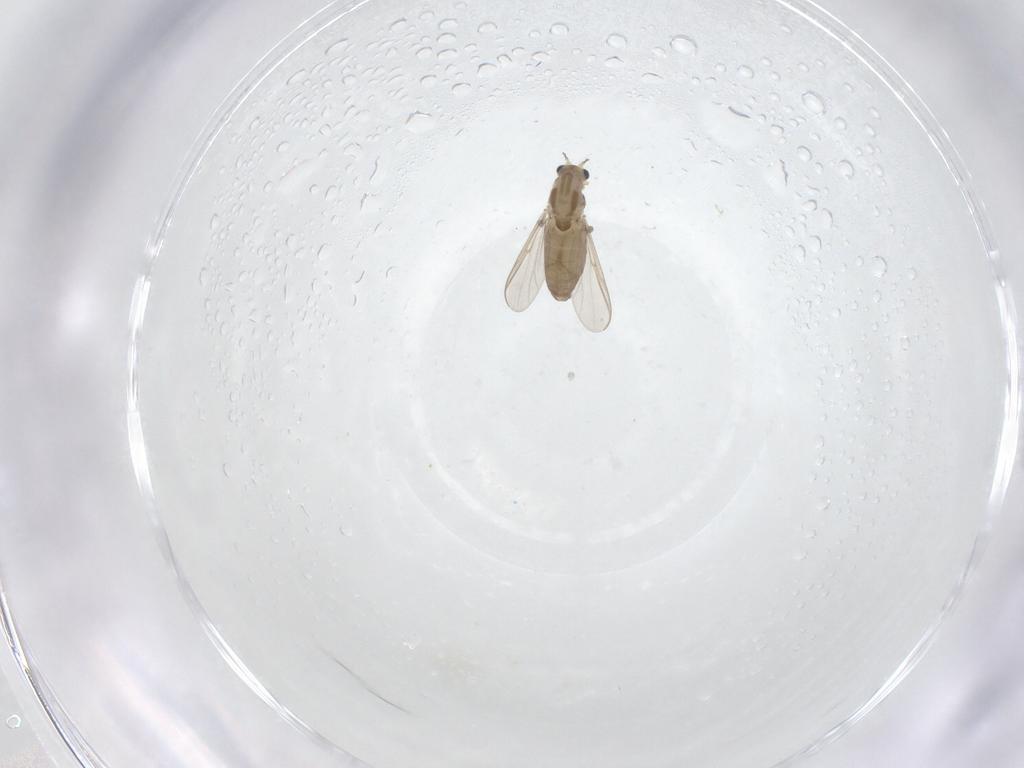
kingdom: Animalia
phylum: Arthropoda
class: Insecta
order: Diptera
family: Chironomidae
